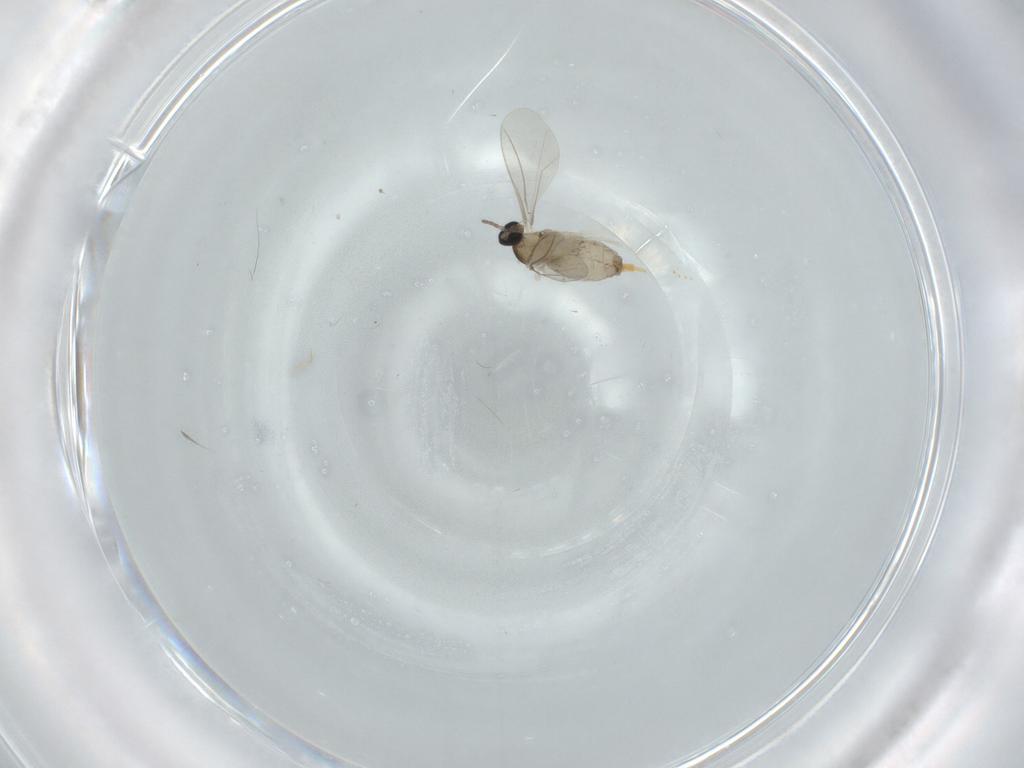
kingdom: Animalia
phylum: Arthropoda
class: Insecta
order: Diptera
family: Cecidomyiidae
